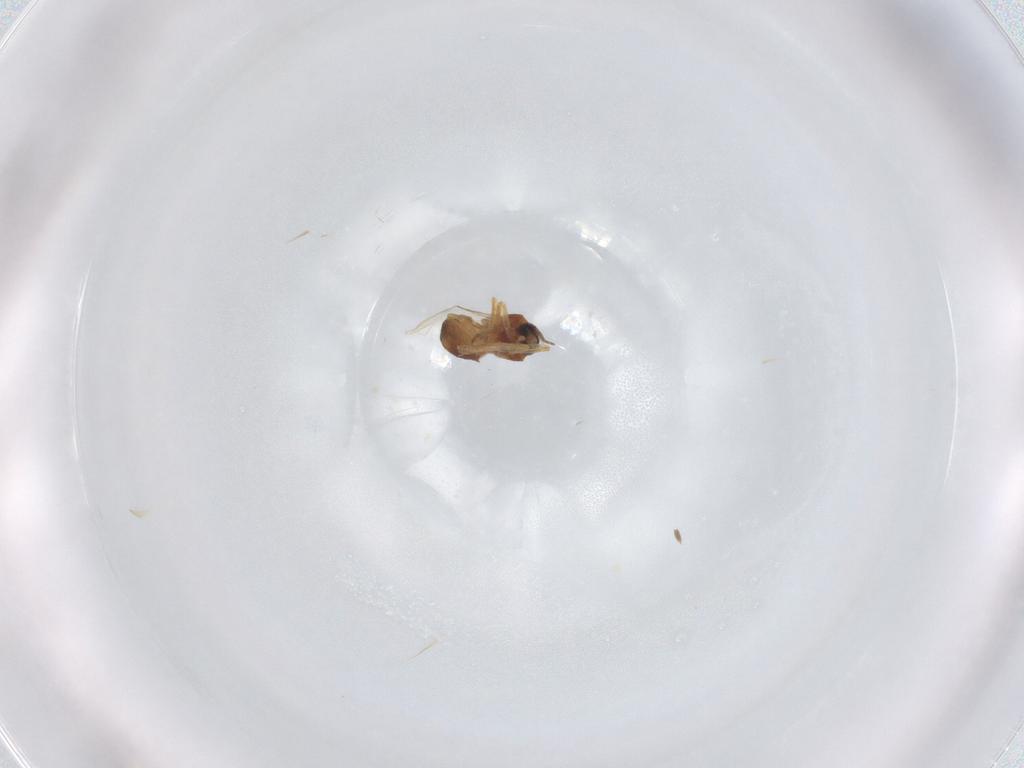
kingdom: Animalia
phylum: Arthropoda
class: Insecta
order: Diptera
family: Ceratopogonidae
